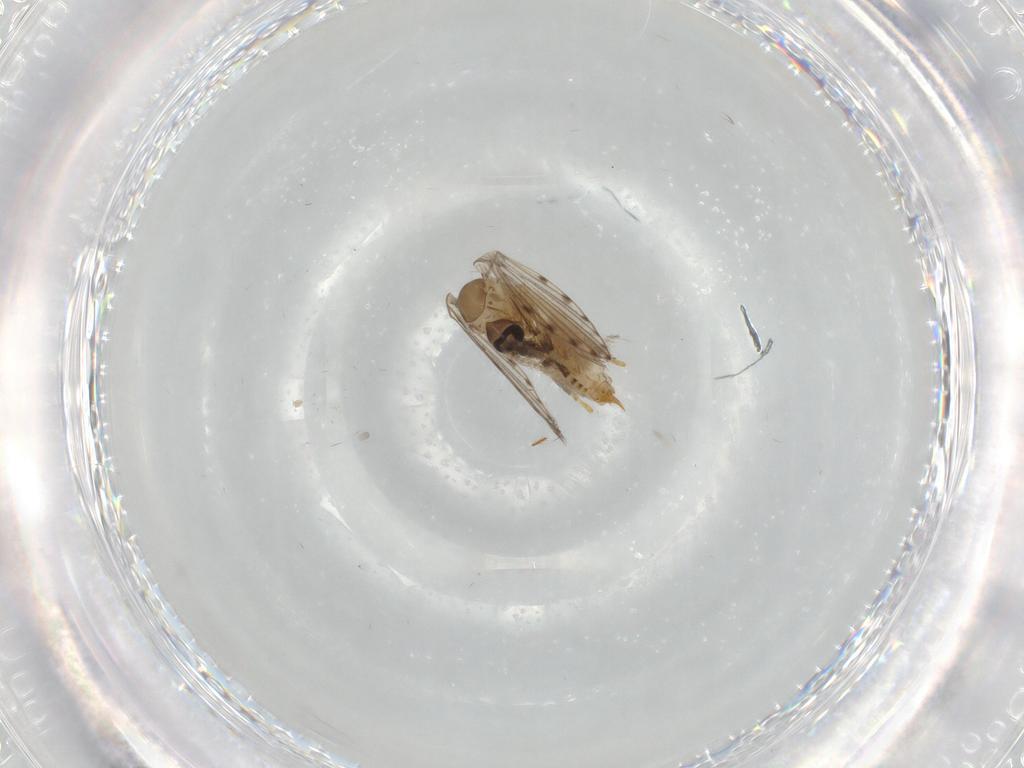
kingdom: Animalia
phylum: Arthropoda
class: Insecta
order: Diptera
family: Psychodidae
